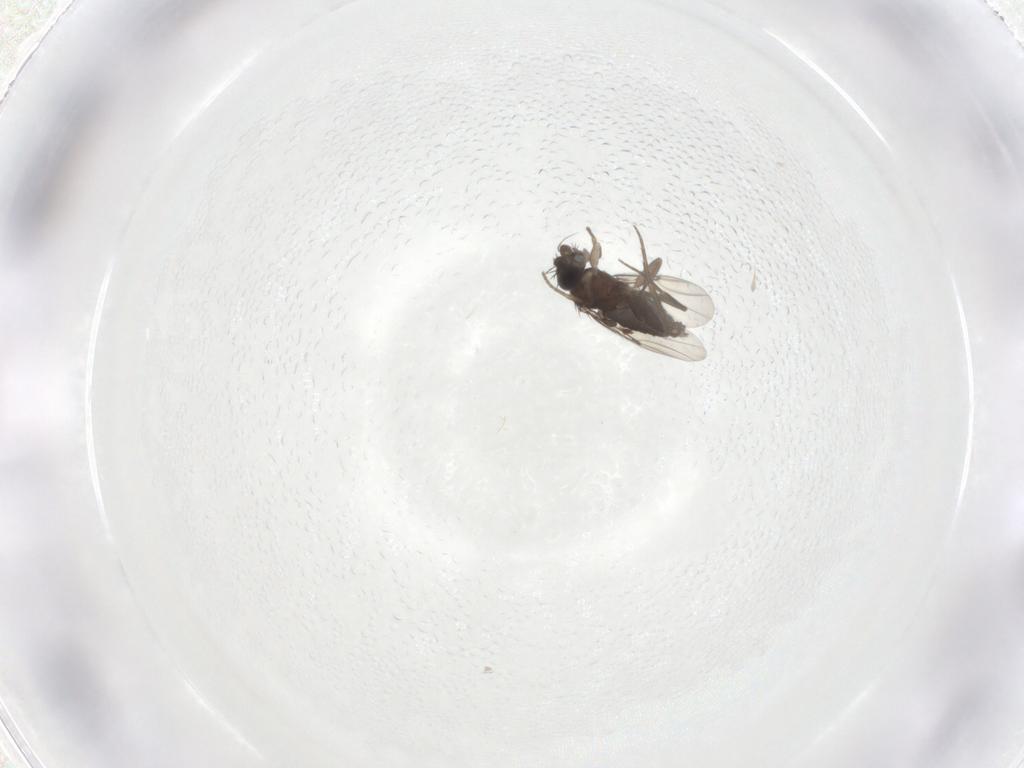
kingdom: Animalia
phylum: Arthropoda
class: Insecta
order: Diptera
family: Phoridae
